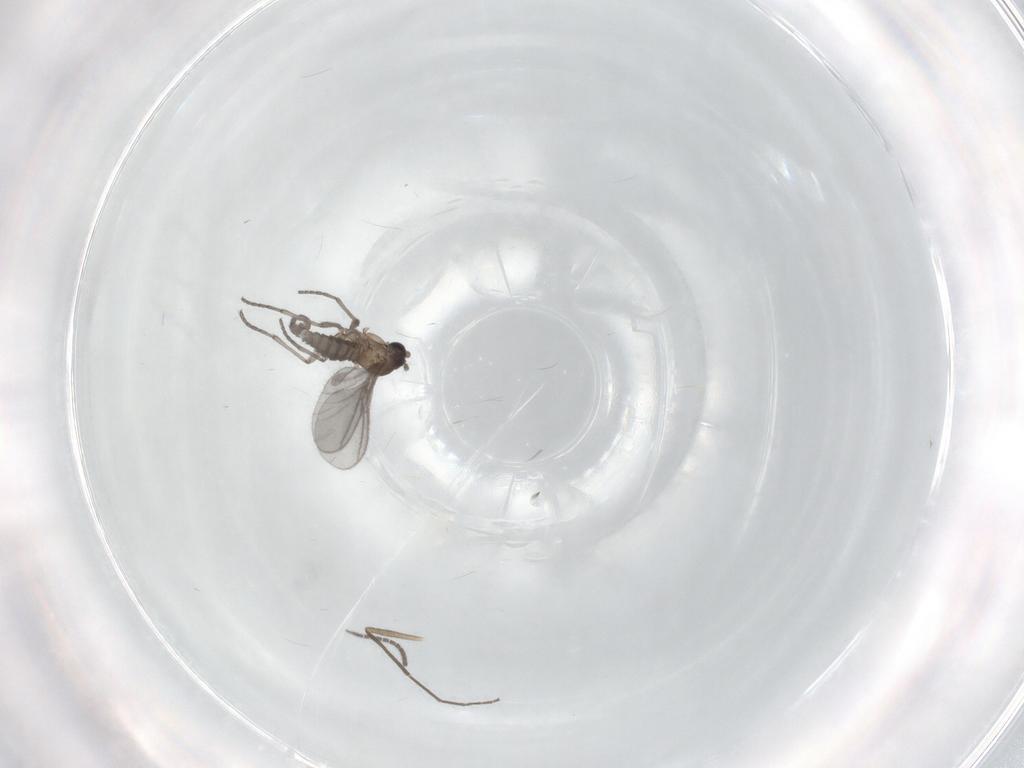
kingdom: Animalia
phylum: Arthropoda
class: Insecta
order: Diptera
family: Sciaridae
